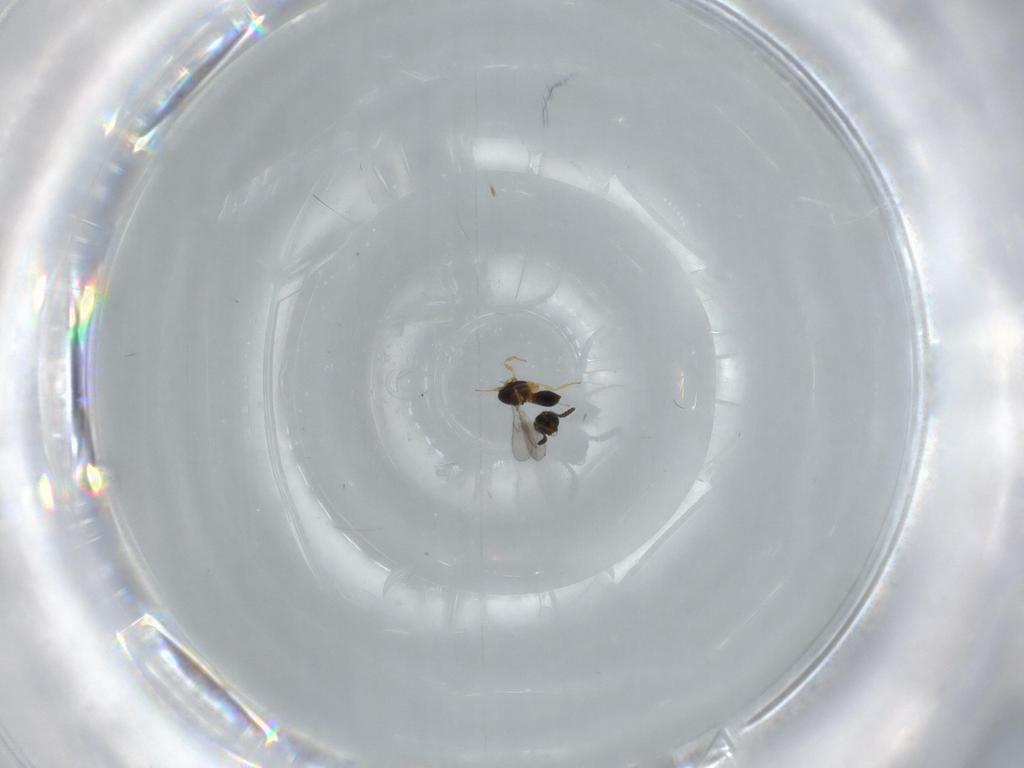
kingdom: Animalia
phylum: Arthropoda
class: Insecta
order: Hymenoptera
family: Scelionidae
